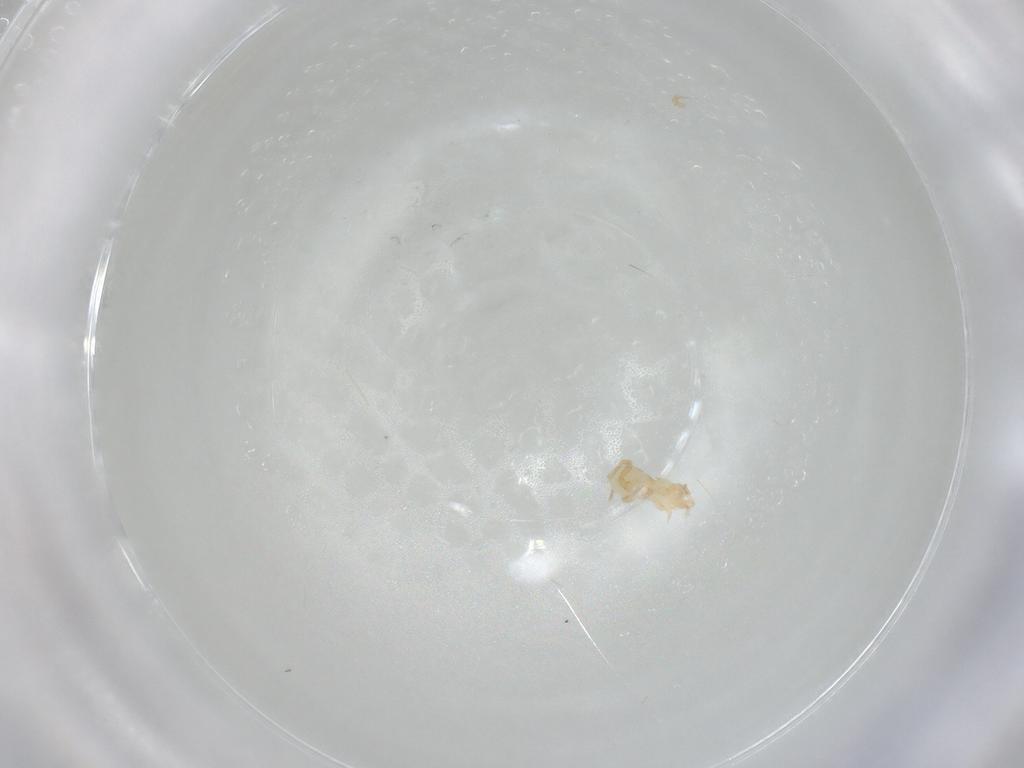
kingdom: Animalia
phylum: Arthropoda
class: Arachnida
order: Mesostigmata
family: Parasitidae
